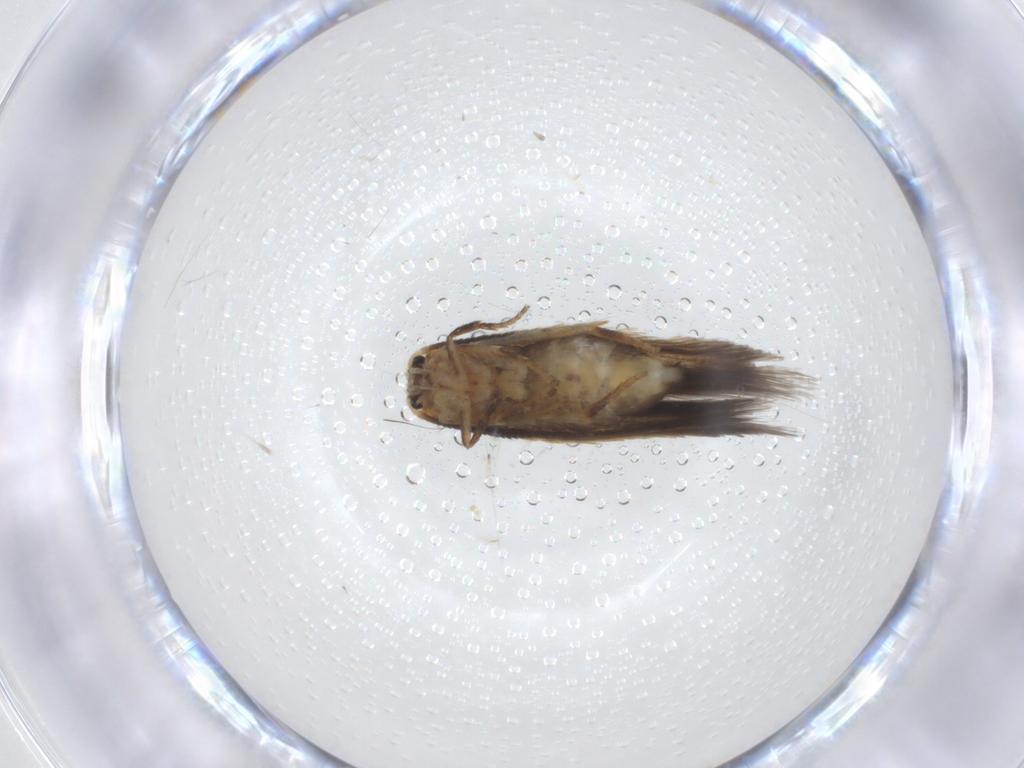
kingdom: Animalia
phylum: Arthropoda
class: Insecta
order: Lepidoptera
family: Nepticulidae
